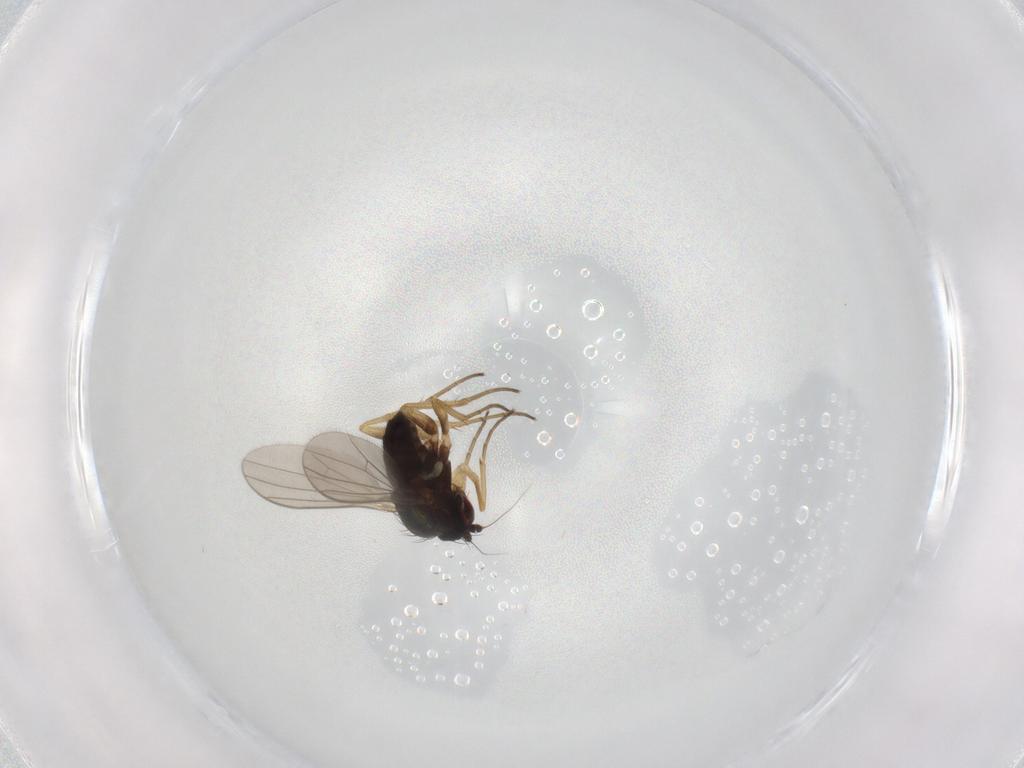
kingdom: Animalia
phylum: Arthropoda
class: Insecta
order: Diptera
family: Dolichopodidae
